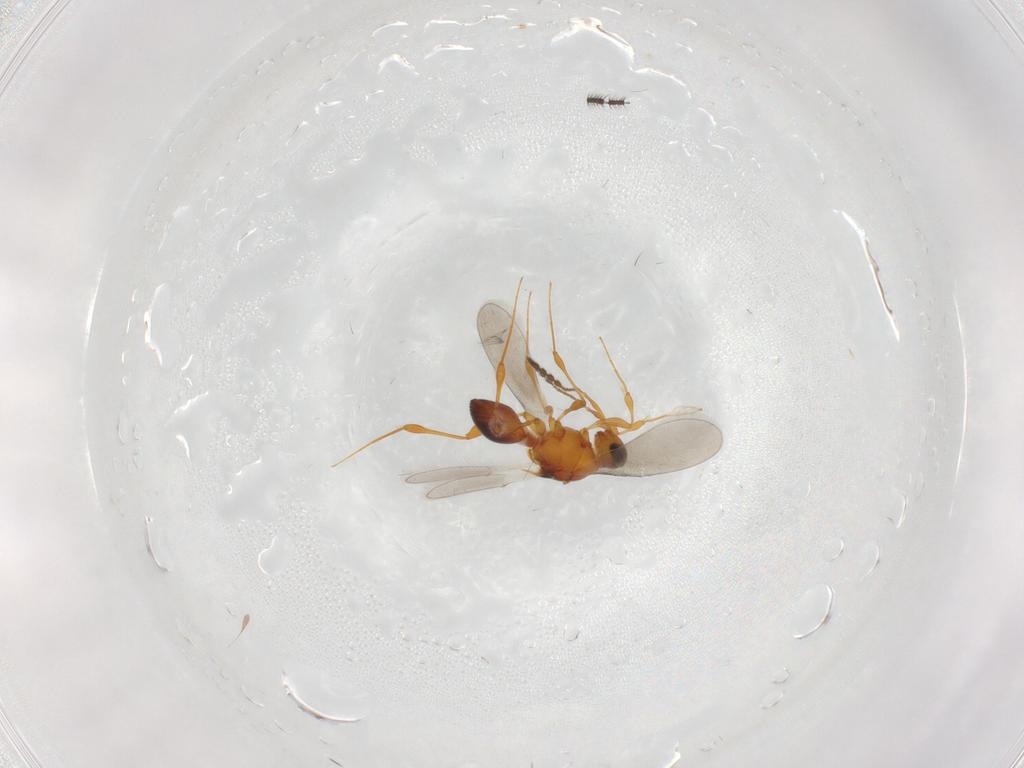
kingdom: Animalia
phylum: Arthropoda
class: Insecta
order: Hymenoptera
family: Platygastridae
